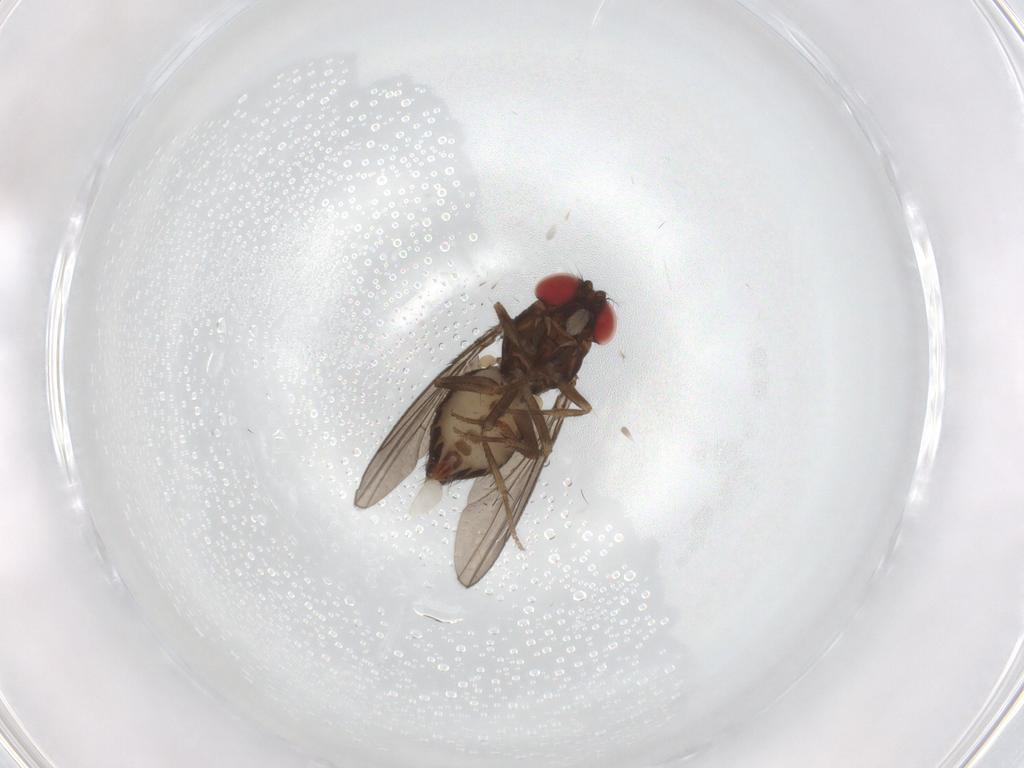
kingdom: Animalia
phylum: Arthropoda
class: Insecta
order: Diptera
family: Drosophilidae
